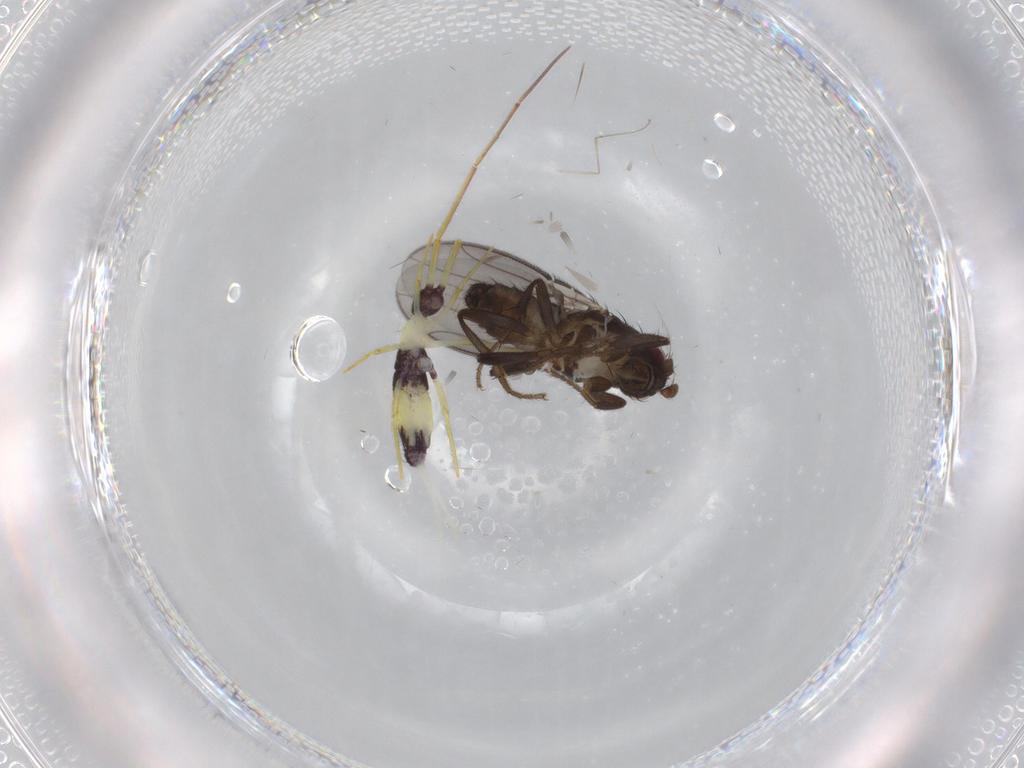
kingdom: Animalia
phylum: Arthropoda
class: Insecta
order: Diptera
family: Sphaeroceridae
